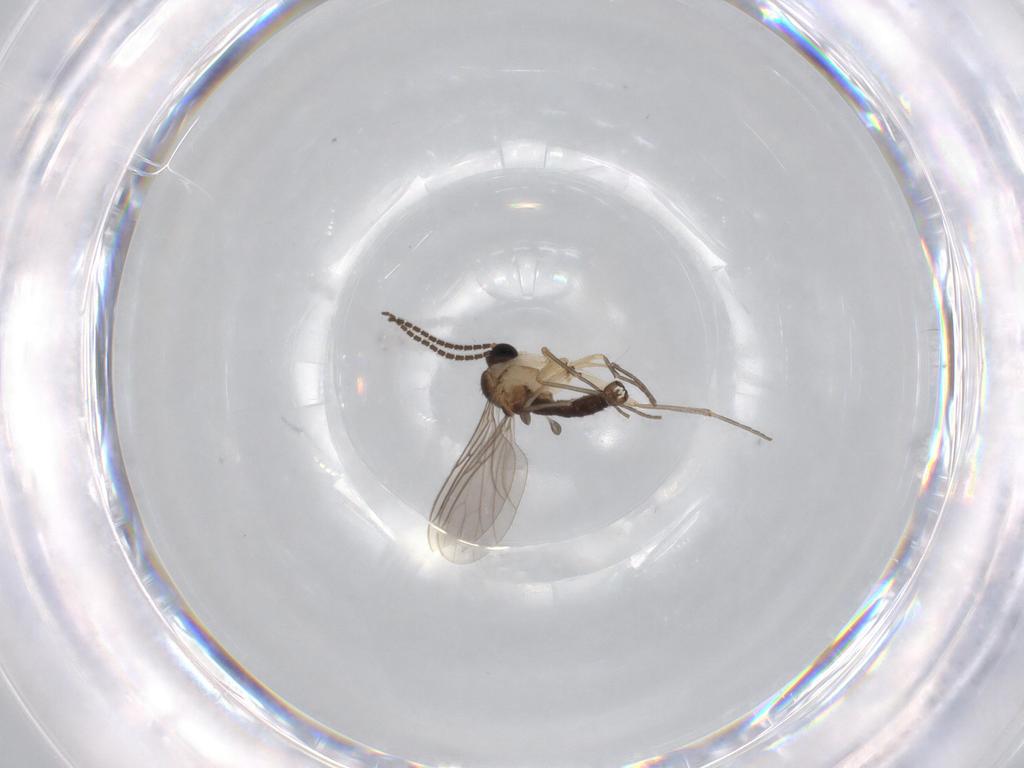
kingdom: Animalia
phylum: Arthropoda
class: Insecta
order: Diptera
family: Sciaridae
